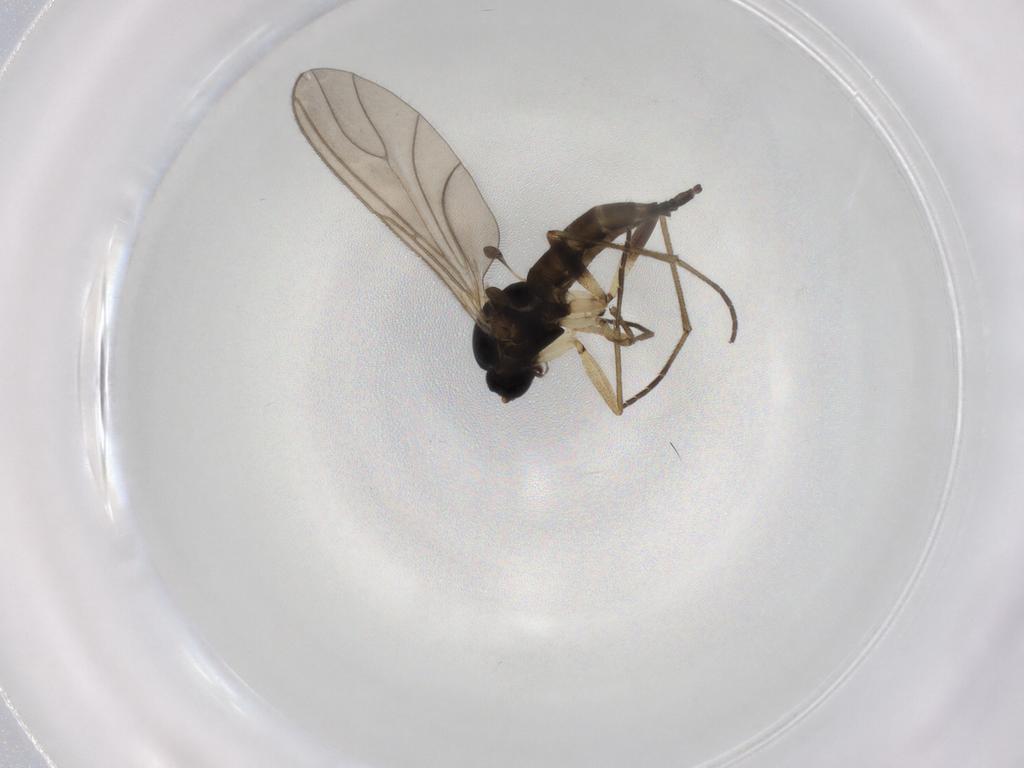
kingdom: Animalia
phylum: Arthropoda
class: Insecta
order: Diptera
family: Sciaridae
